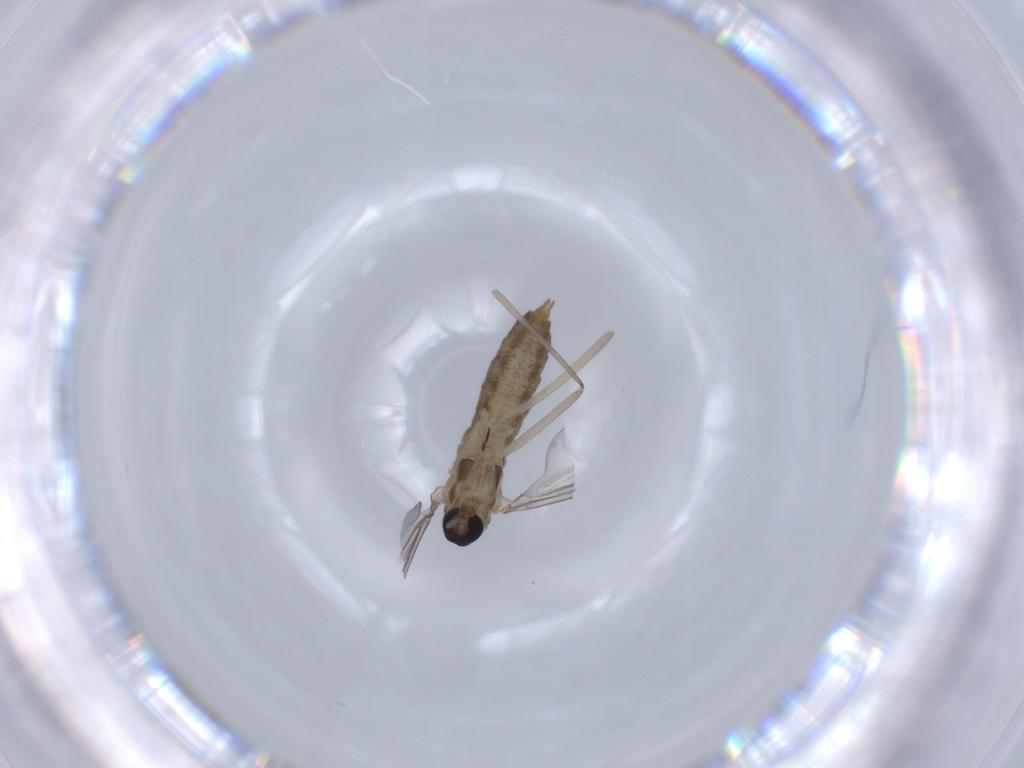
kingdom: Animalia
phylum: Arthropoda
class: Insecta
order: Diptera
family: Cecidomyiidae
